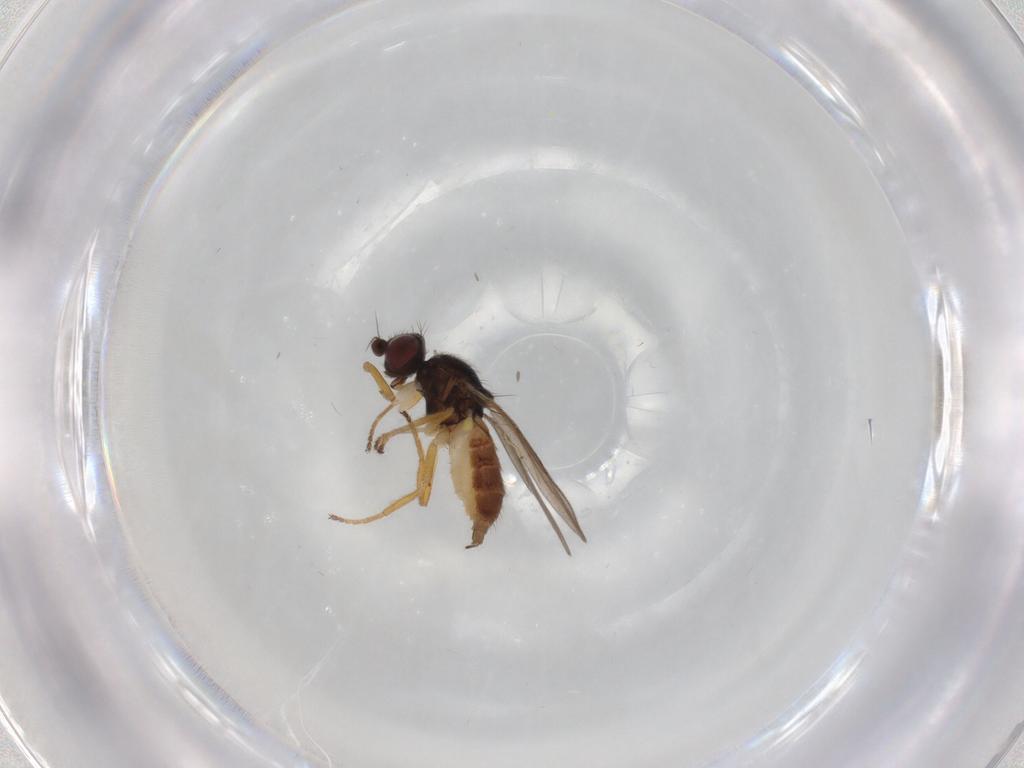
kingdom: Animalia
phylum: Arthropoda
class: Insecta
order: Diptera
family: Chloropidae
